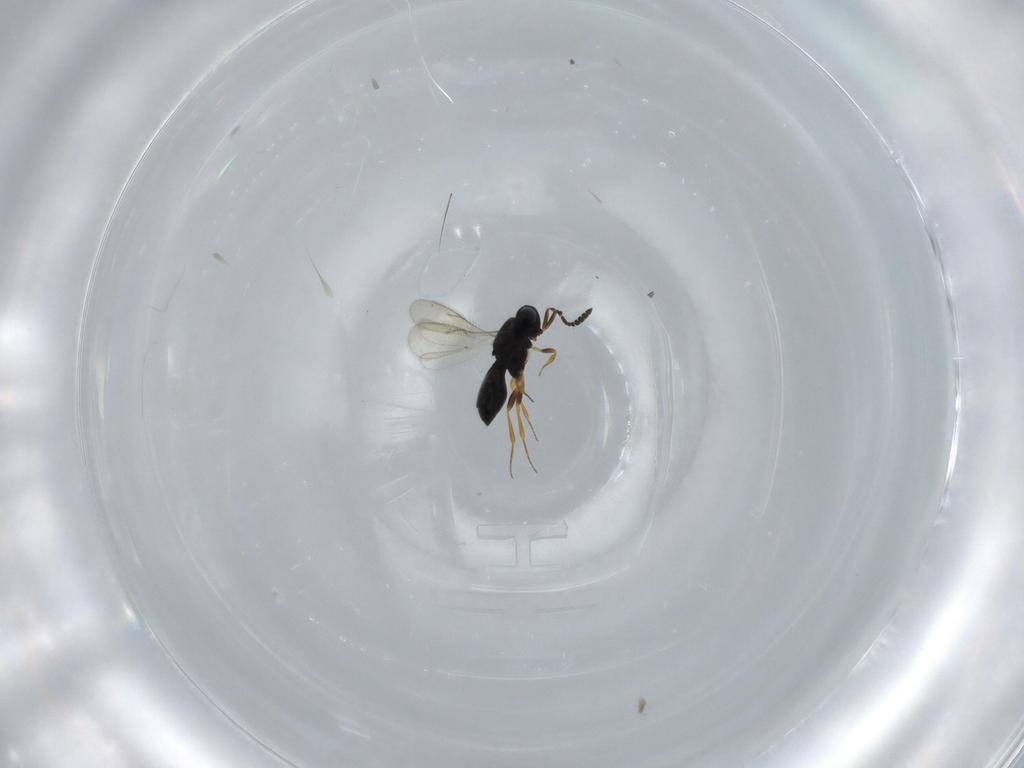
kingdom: Animalia
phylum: Arthropoda
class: Insecta
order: Hymenoptera
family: Scelionidae
